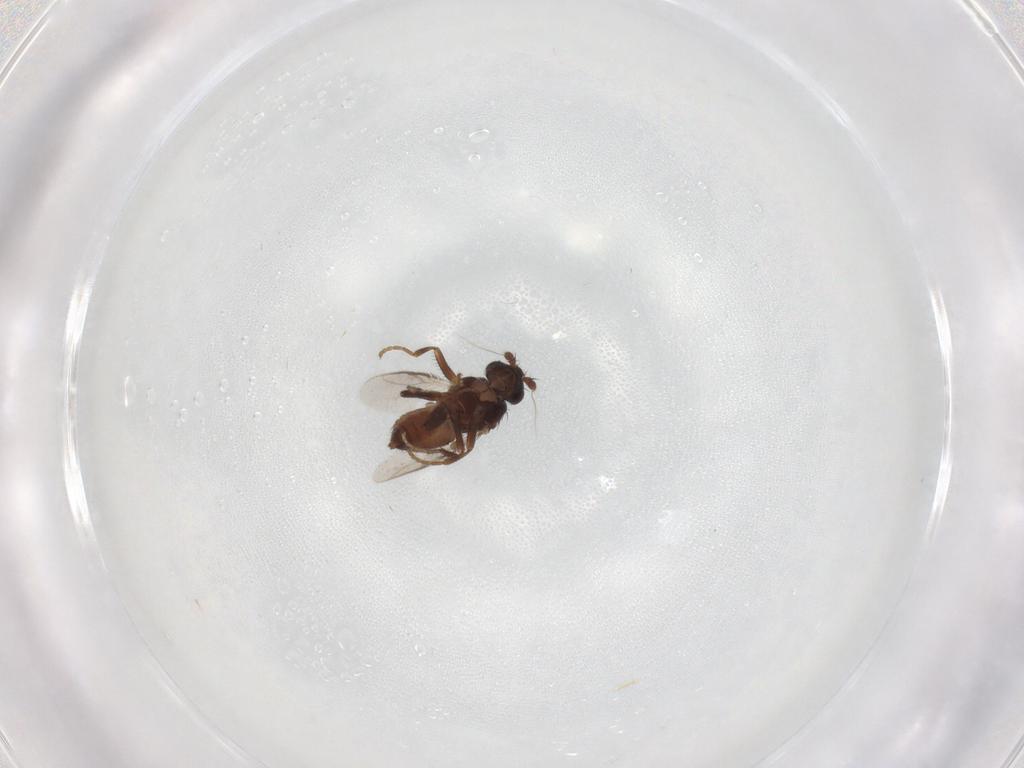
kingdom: Animalia
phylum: Arthropoda
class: Insecta
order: Diptera
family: Sphaeroceridae
